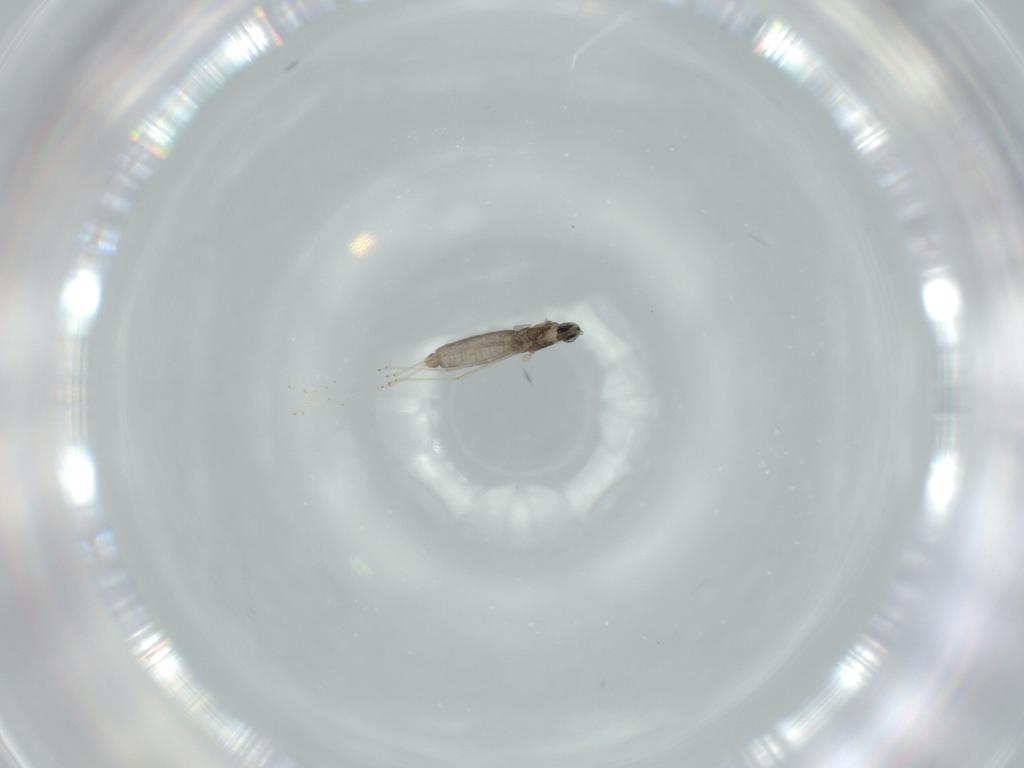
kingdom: Animalia
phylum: Arthropoda
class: Insecta
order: Diptera
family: Cecidomyiidae
